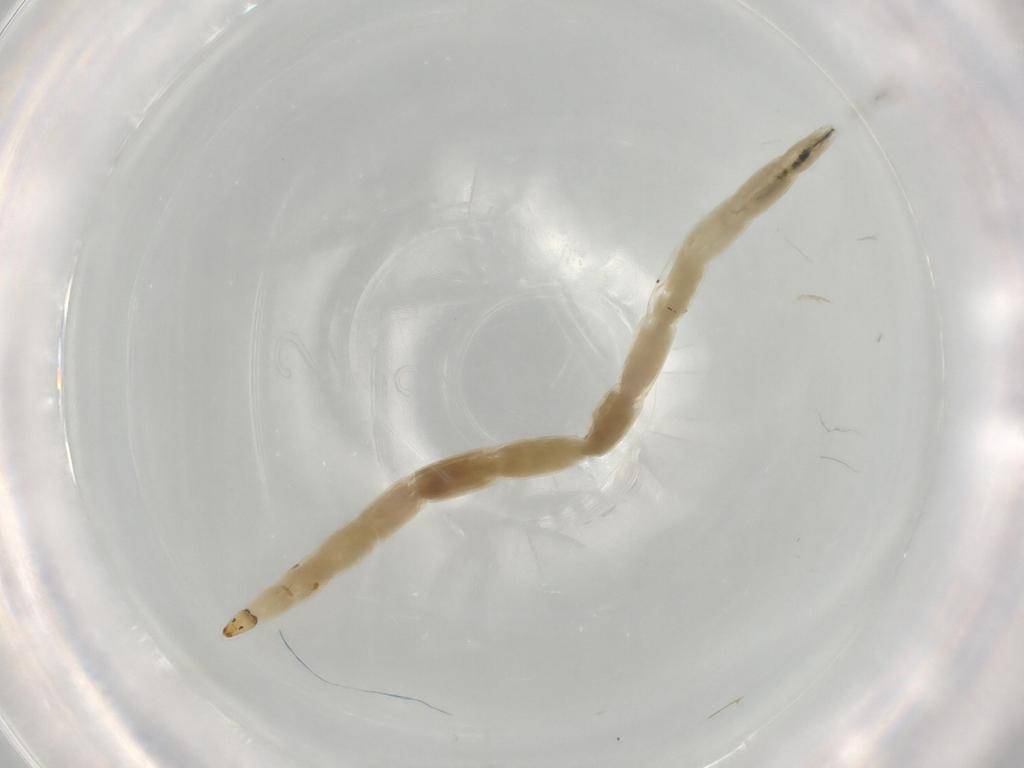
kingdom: Animalia
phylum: Arthropoda
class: Insecta
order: Diptera
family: Ceratopogonidae
